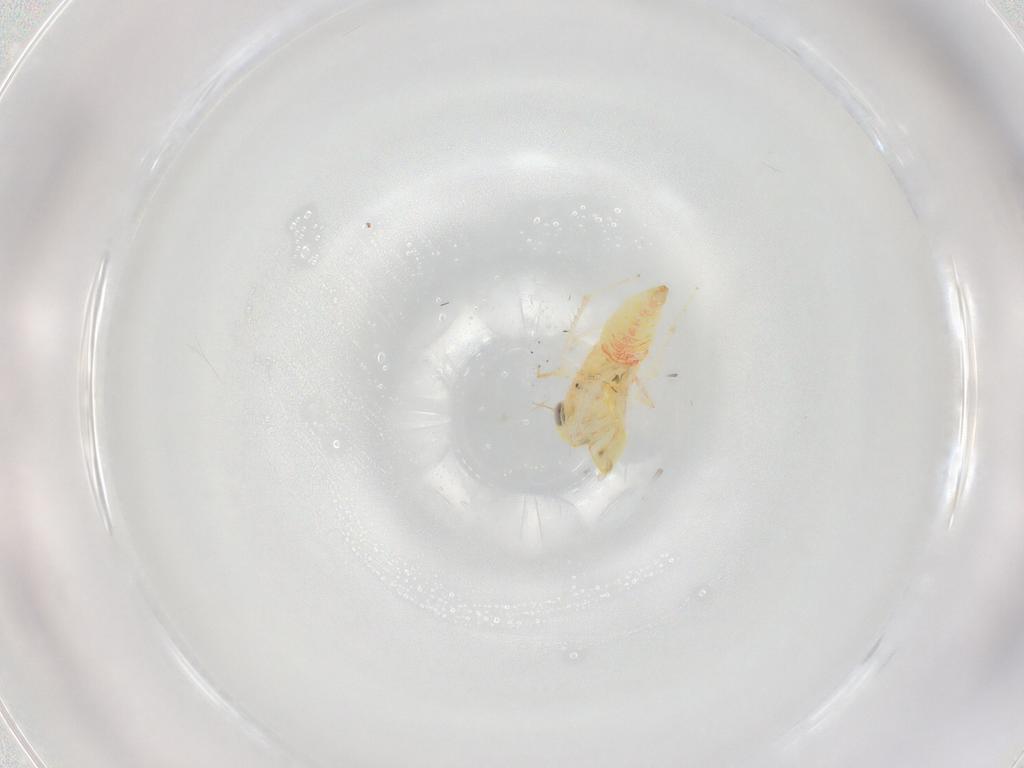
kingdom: Animalia
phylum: Arthropoda
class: Insecta
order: Hemiptera
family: Cicadellidae
